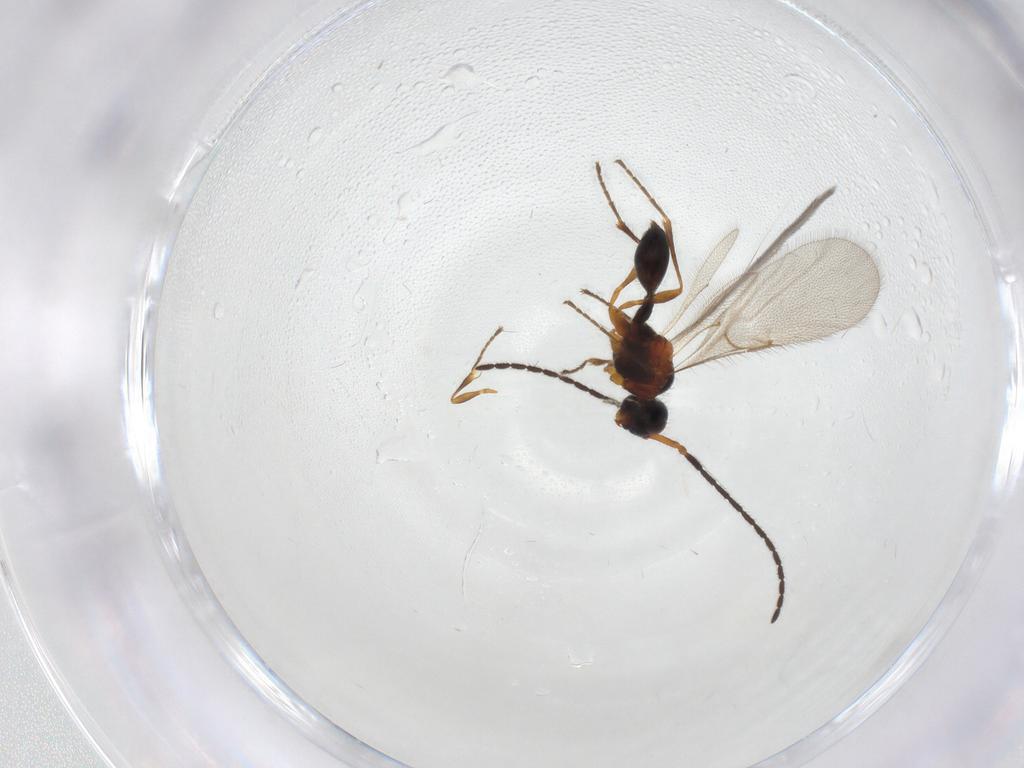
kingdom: Animalia
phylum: Arthropoda
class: Insecta
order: Hymenoptera
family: Diapriidae
